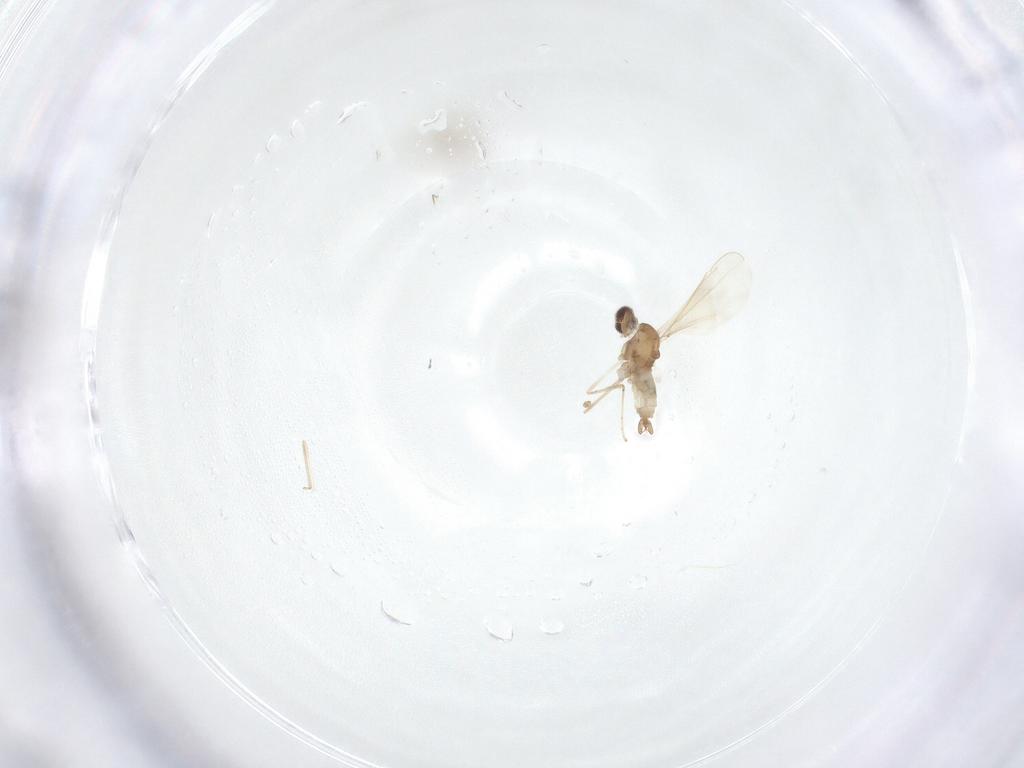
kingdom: Animalia
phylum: Arthropoda
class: Insecta
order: Diptera
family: Cecidomyiidae
